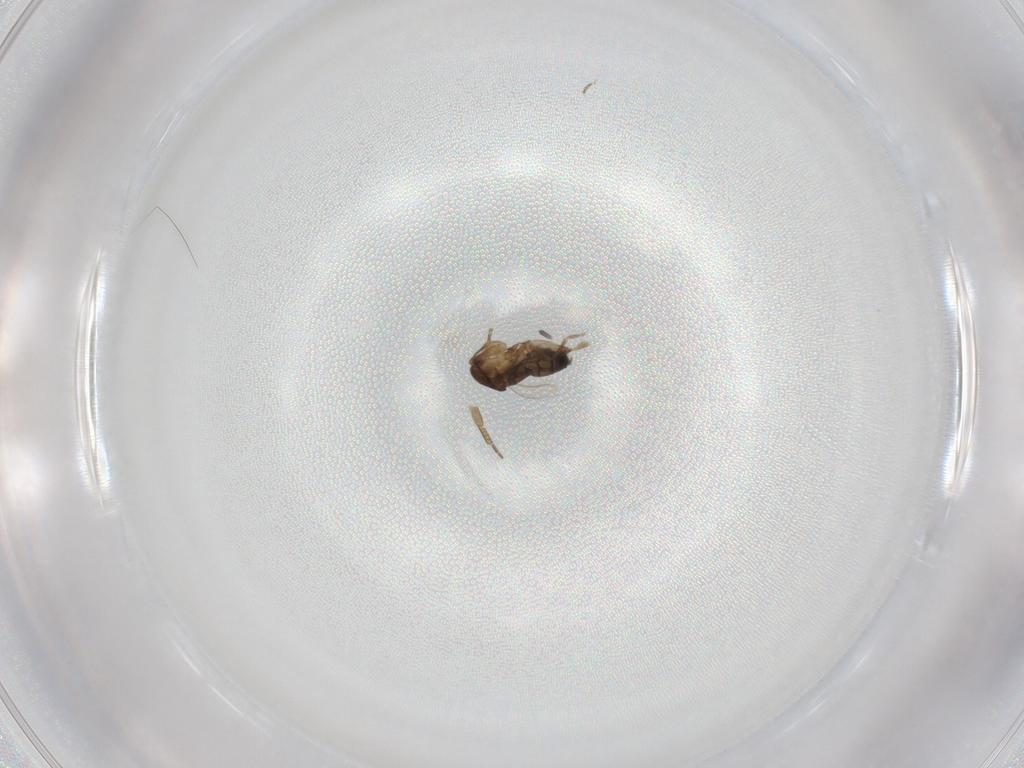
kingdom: Animalia
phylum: Arthropoda
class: Insecta
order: Diptera
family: Phoridae
